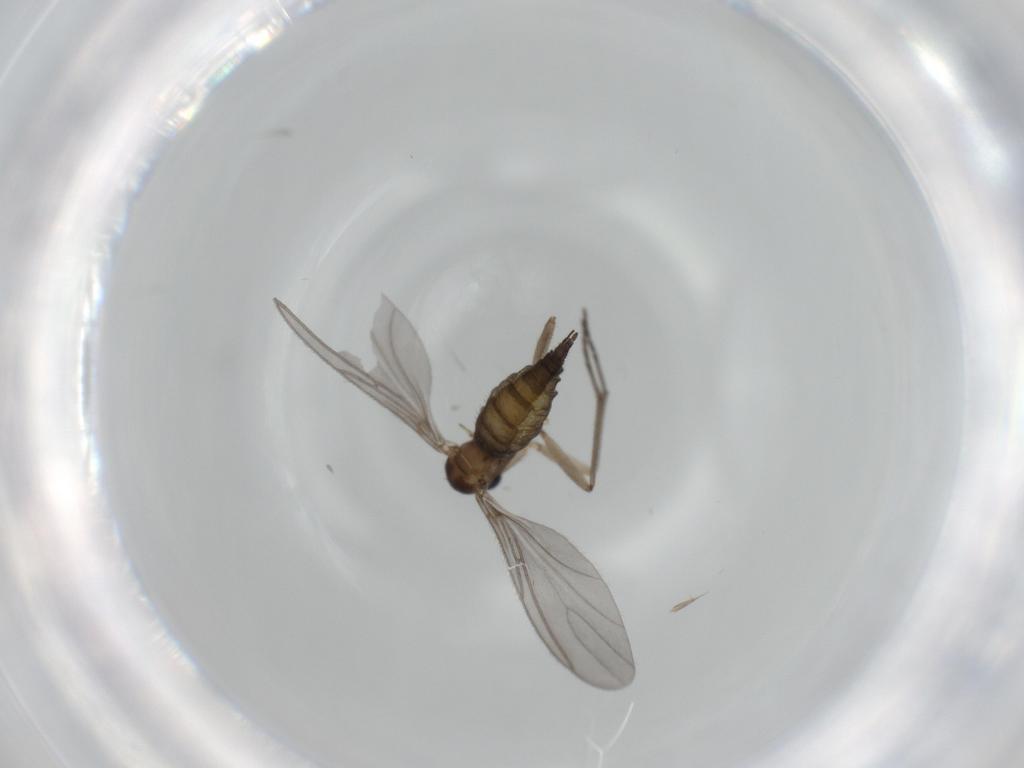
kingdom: Animalia
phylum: Arthropoda
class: Insecta
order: Diptera
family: Sciaridae
